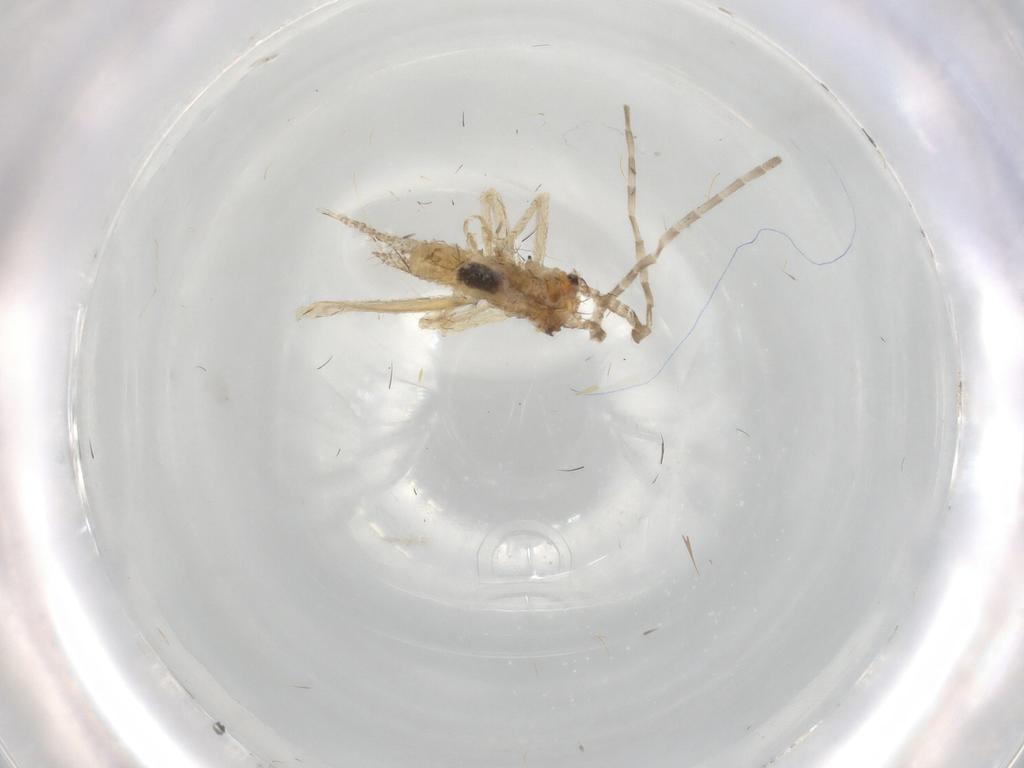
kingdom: Animalia
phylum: Arthropoda
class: Insecta
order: Orthoptera
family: Gryllidae
